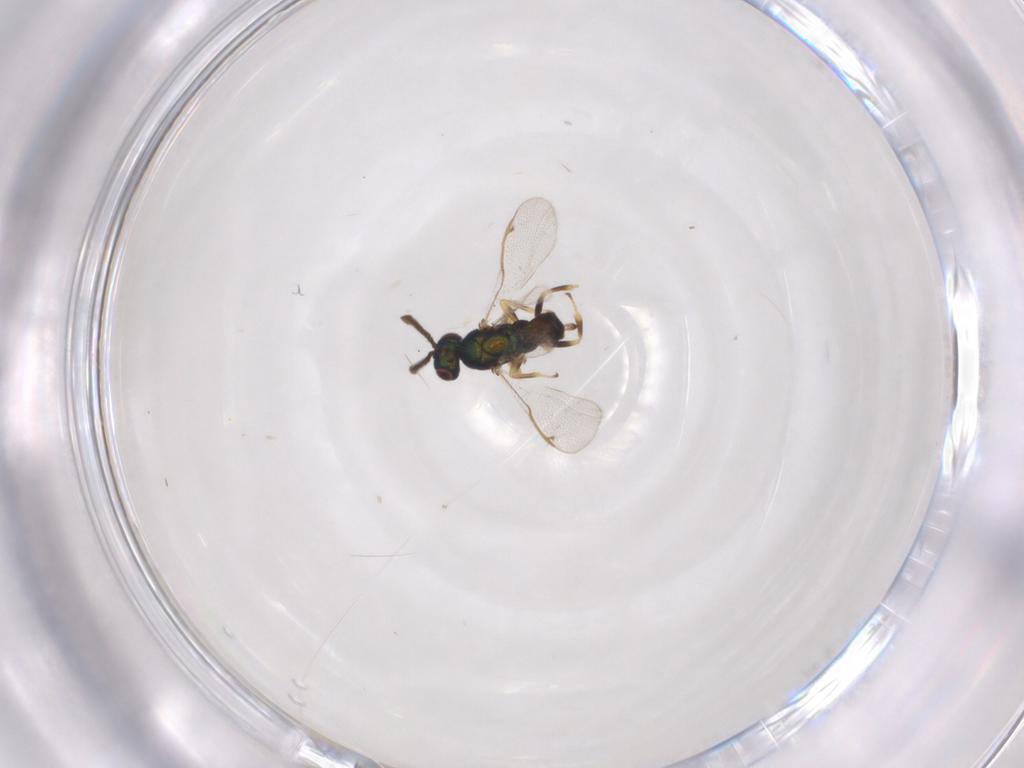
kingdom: Animalia
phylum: Arthropoda
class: Insecta
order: Hymenoptera
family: Torymidae
